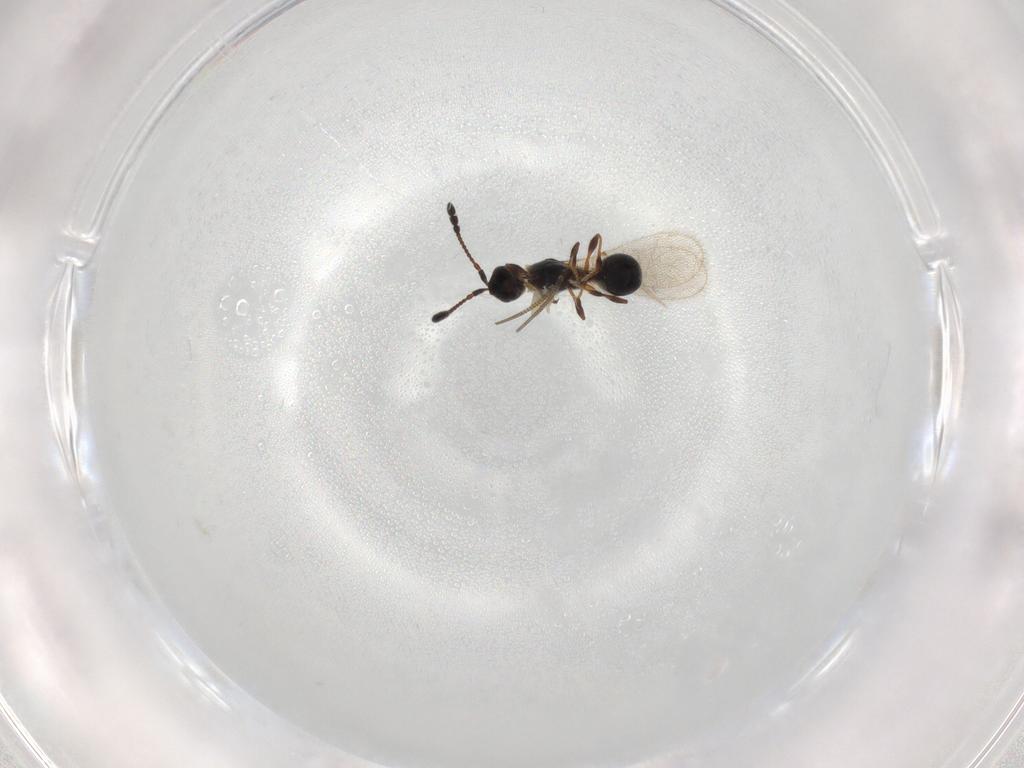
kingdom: Animalia
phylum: Arthropoda
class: Insecta
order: Hymenoptera
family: Diapriidae
